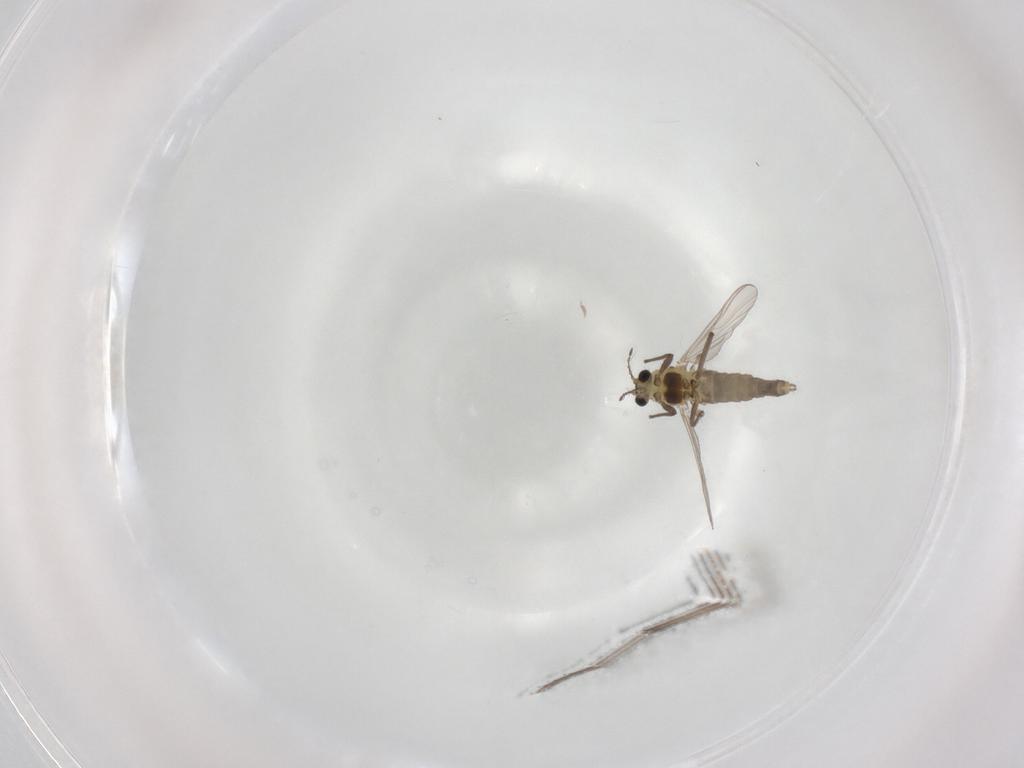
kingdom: Animalia
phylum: Arthropoda
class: Insecta
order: Diptera
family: Chironomidae
